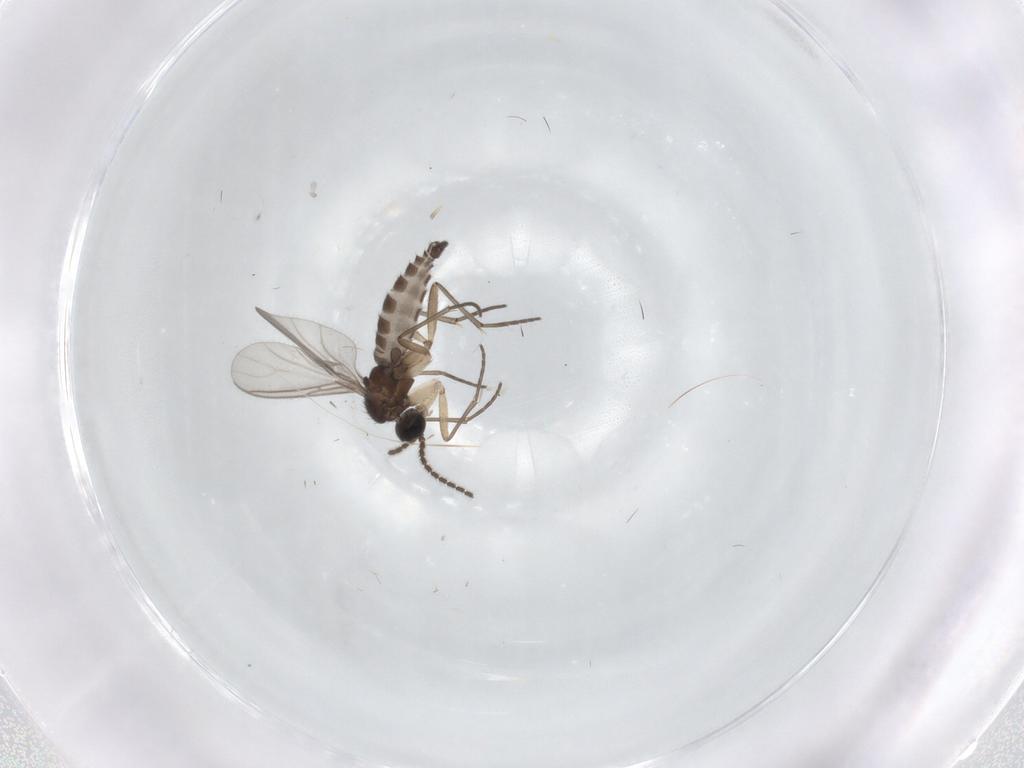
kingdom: Animalia
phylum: Arthropoda
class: Insecta
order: Diptera
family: Sciaridae
